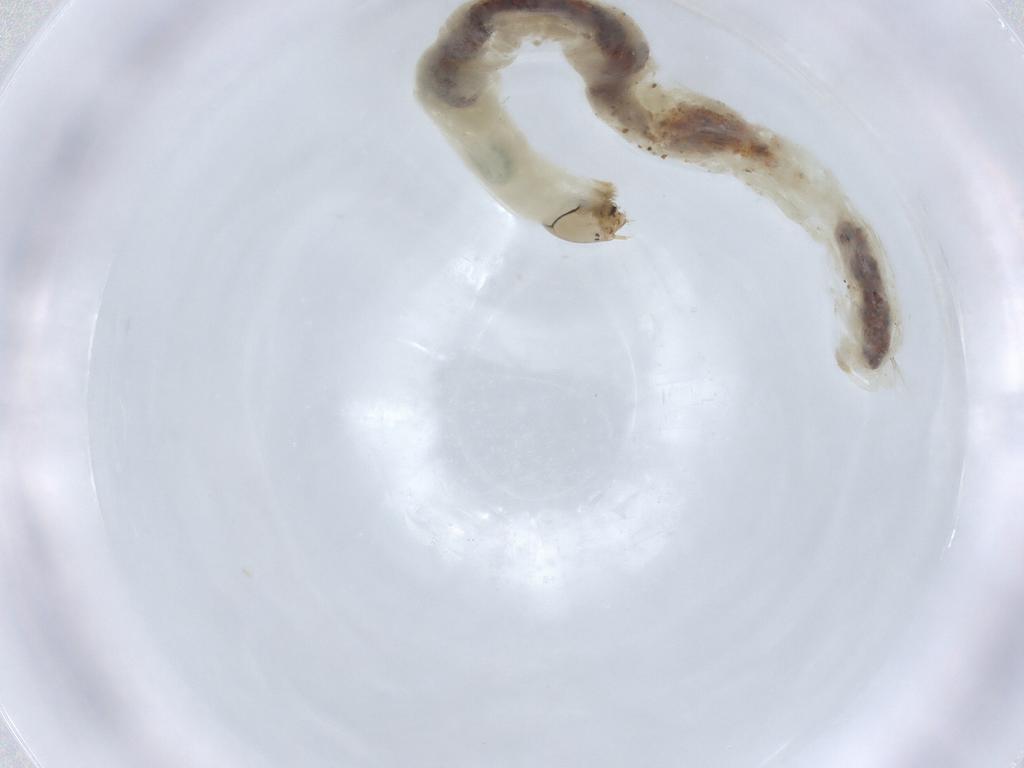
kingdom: Animalia
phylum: Arthropoda
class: Insecta
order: Diptera
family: Chironomidae
